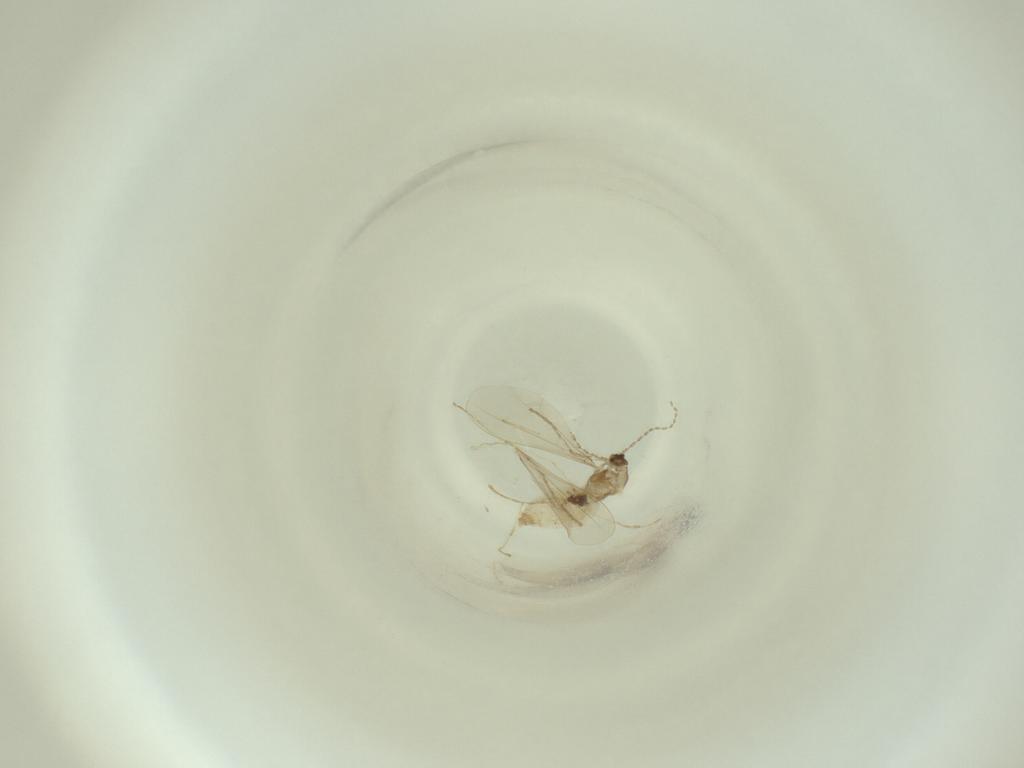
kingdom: Animalia
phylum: Arthropoda
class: Insecta
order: Diptera
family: Cecidomyiidae
